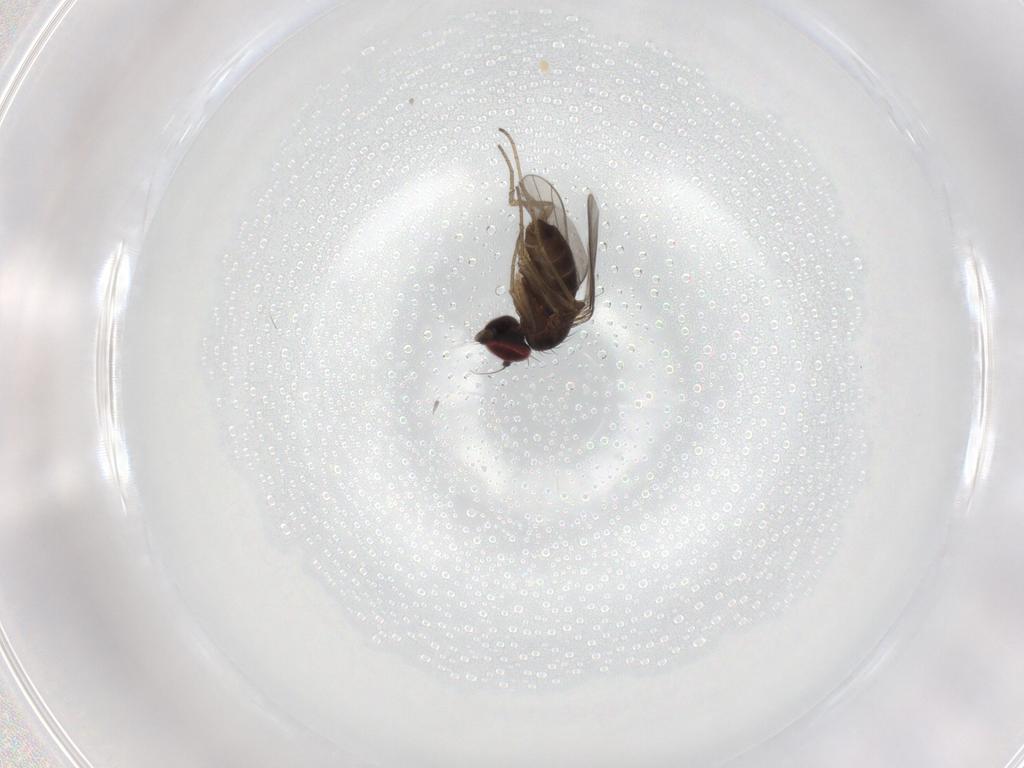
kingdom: Animalia
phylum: Arthropoda
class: Insecta
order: Diptera
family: Dolichopodidae
